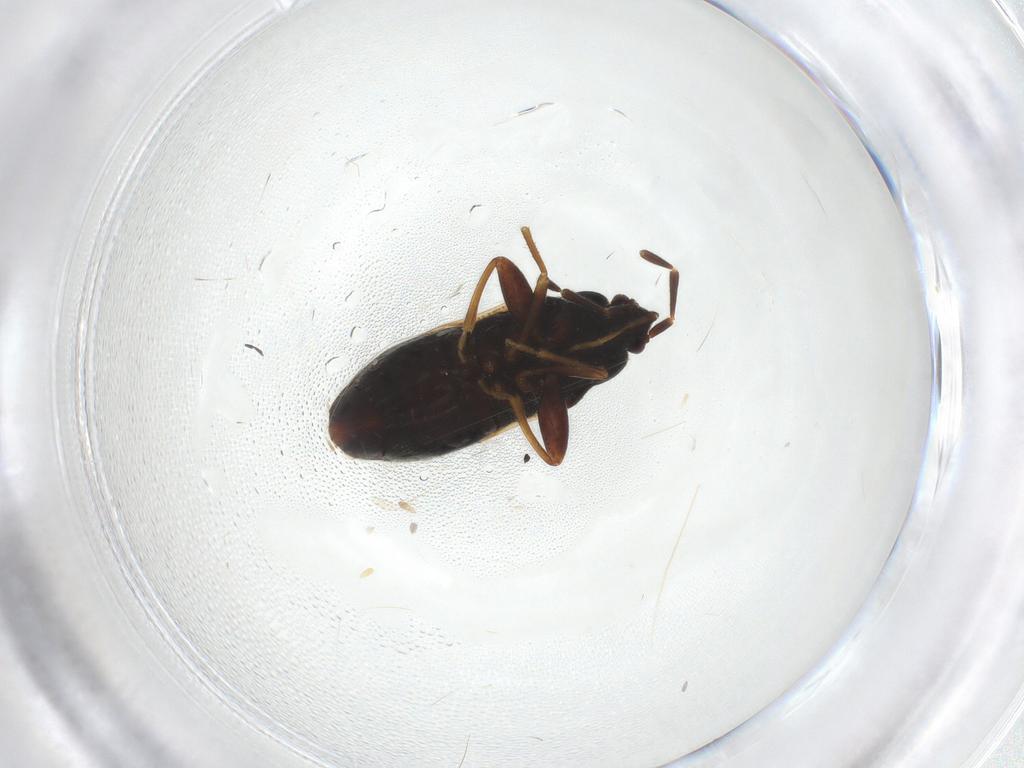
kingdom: Animalia
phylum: Arthropoda
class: Insecta
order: Hemiptera
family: Rhyparochromidae
